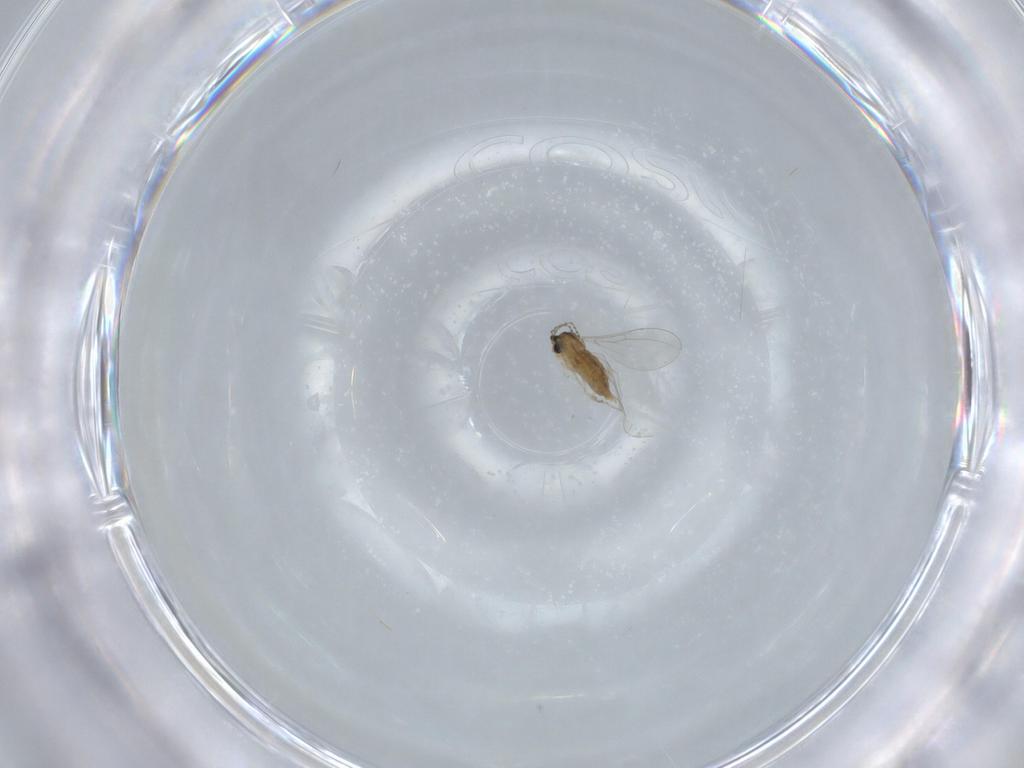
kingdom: Animalia
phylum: Arthropoda
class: Insecta
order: Diptera
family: Cecidomyiidae
